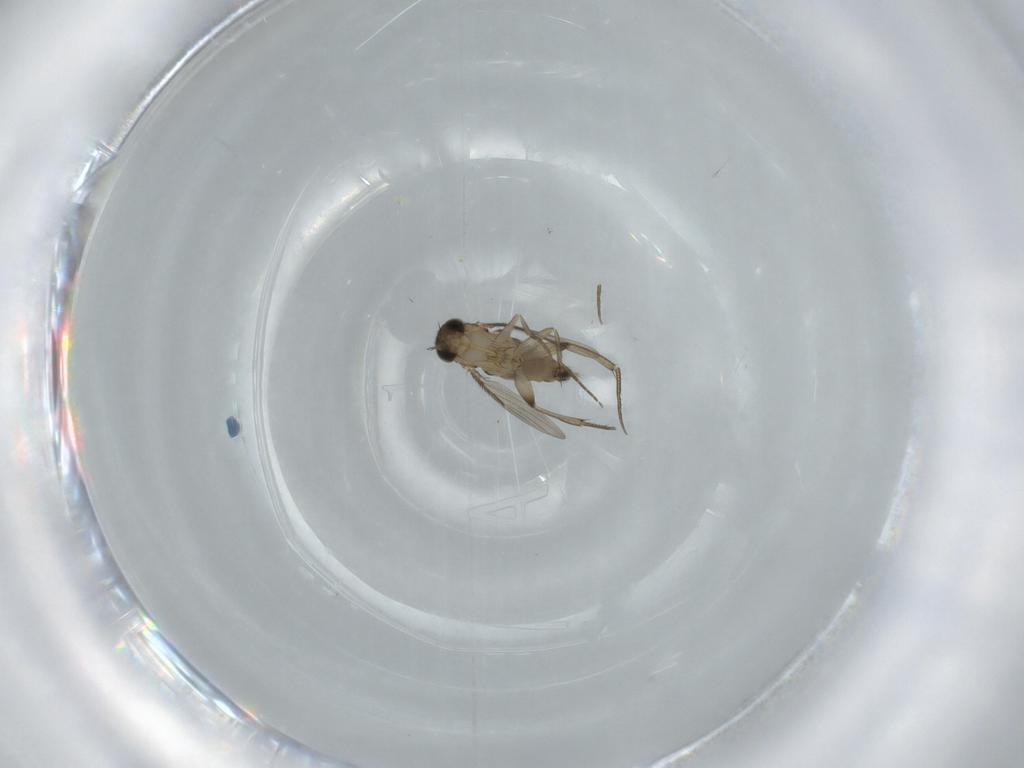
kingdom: Animalia
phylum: Arthropoda
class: Insecta
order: Diptera
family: Phoridae
